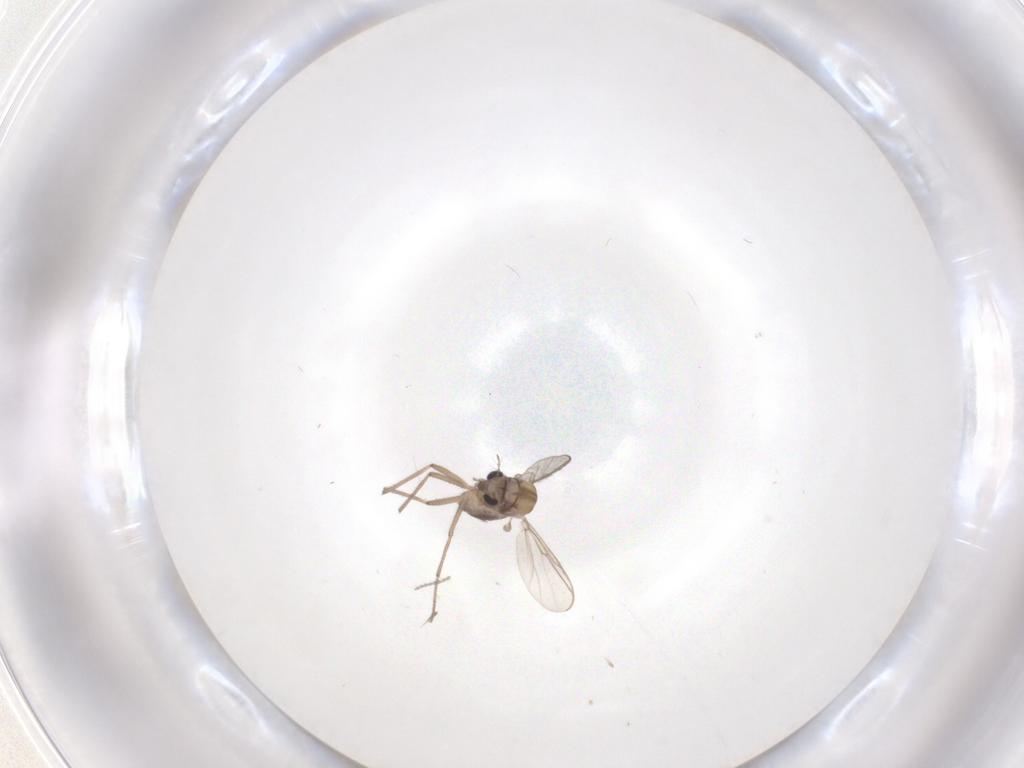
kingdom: Animalia
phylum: Arthropoda
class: Insecta
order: Diptera
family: Chironomidae
